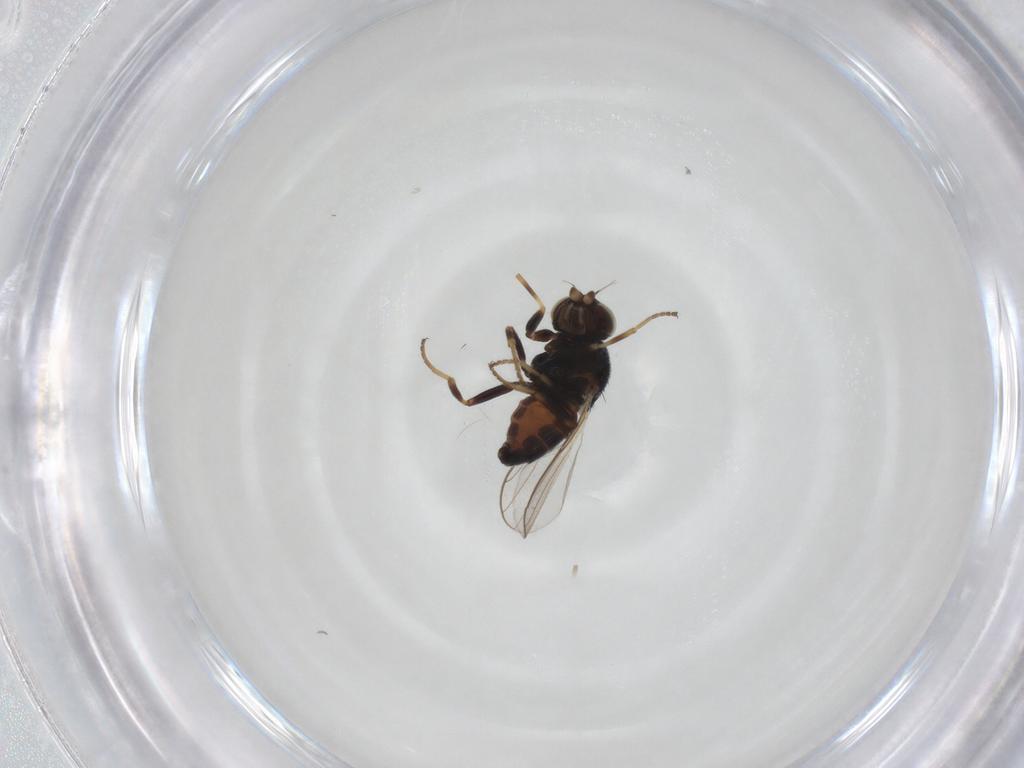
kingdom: Animalia
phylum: Arthropoda
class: Insecta
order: Diptera
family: Chloropidae
